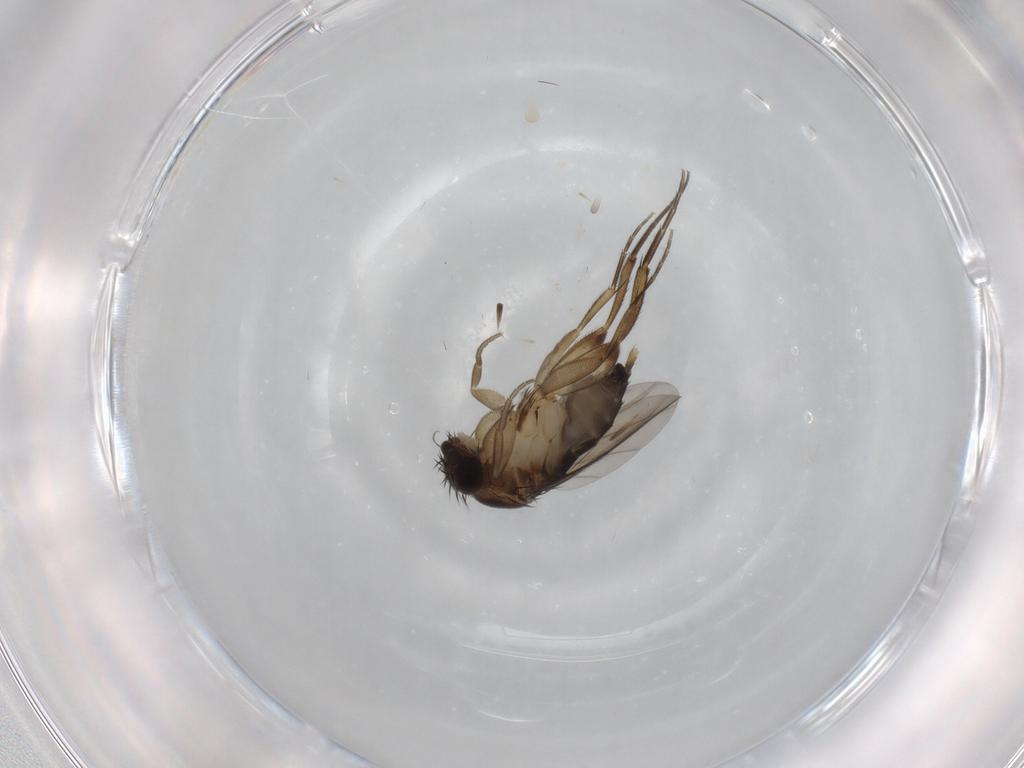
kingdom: Animalia
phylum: Arthropoda
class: Insecta
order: Diptera
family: Phoridae
